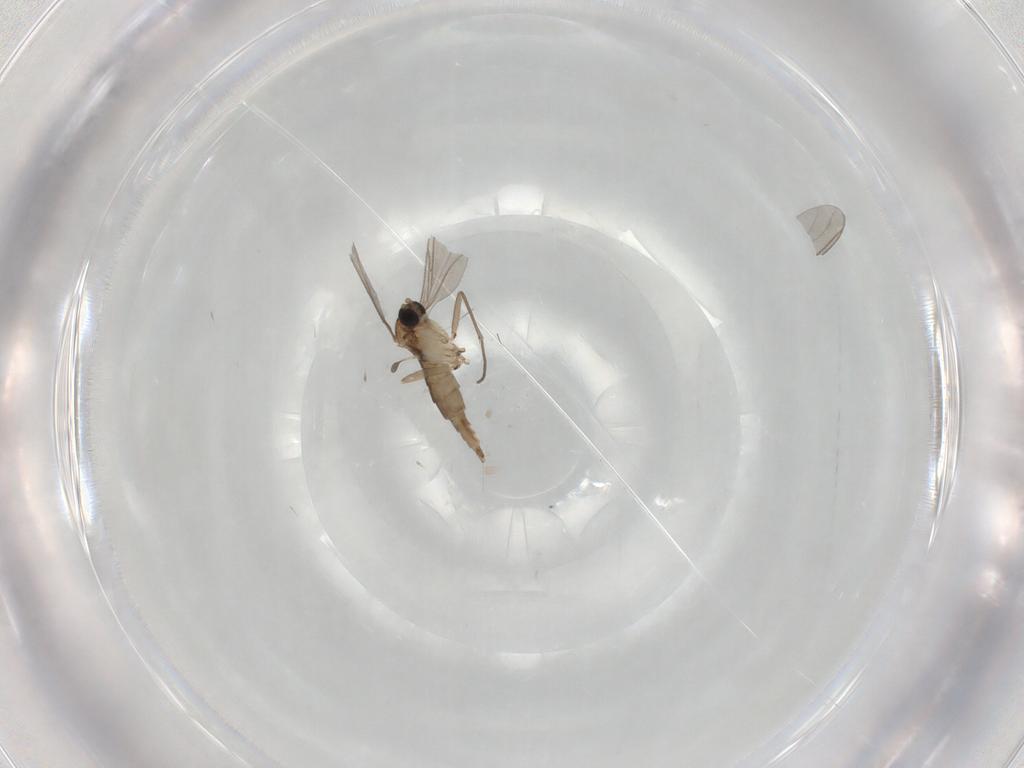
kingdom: Animalia
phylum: Arthropoda
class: Insecta
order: Diptera
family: Sciaridae
